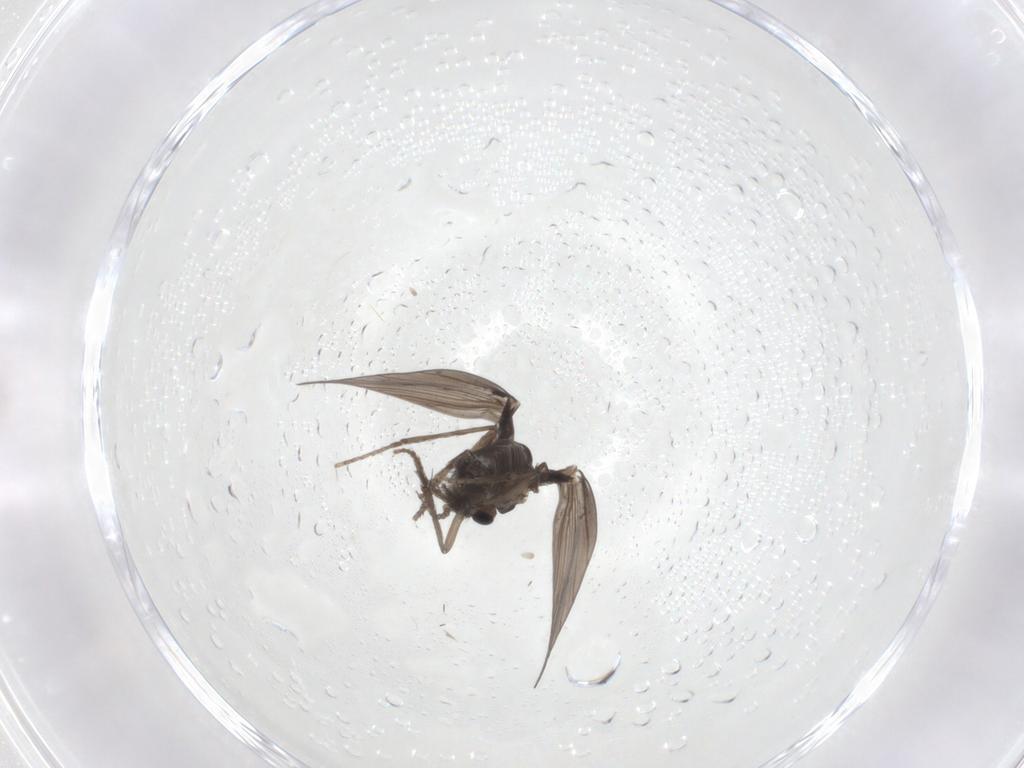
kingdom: Animalia
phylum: Arthropoda
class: Insecta
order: Diptera
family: Psychodidae
